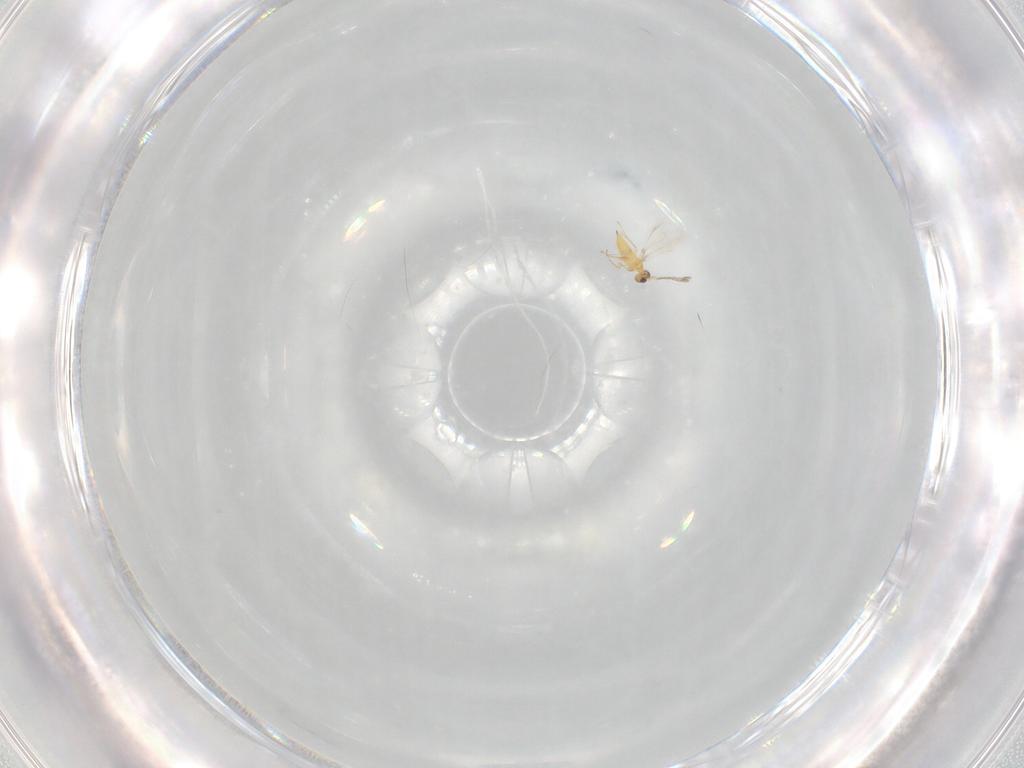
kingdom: Animalia
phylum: Arthropoda
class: Insecta
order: Hymenoptera
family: Mymaridae
